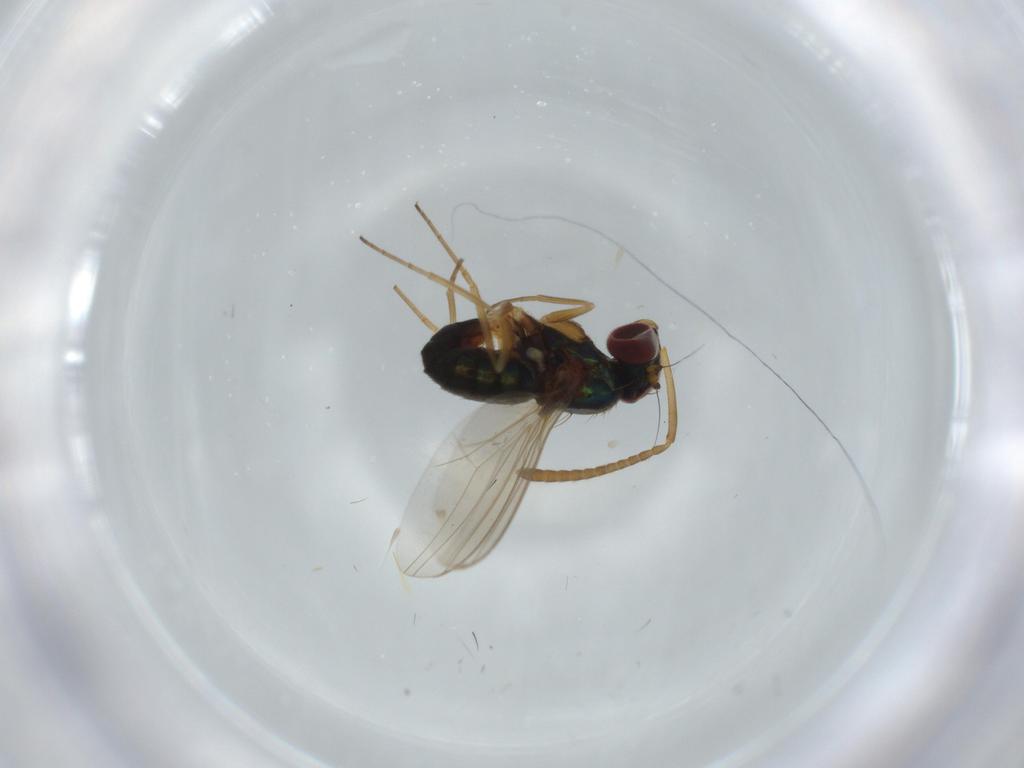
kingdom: Animalia
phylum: Arthropoda
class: Insecta
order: Diptera
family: Dolichopodidae
